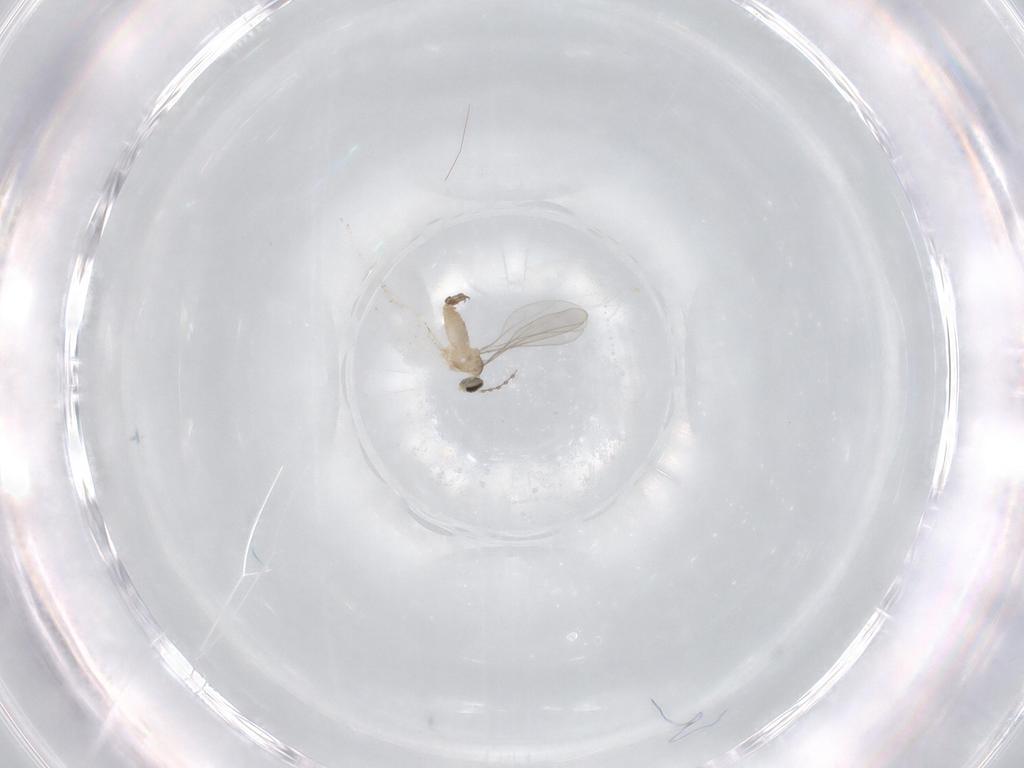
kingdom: Animalia
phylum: Arthropoda
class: Insecta
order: Diptera
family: Cecidomyiidae
